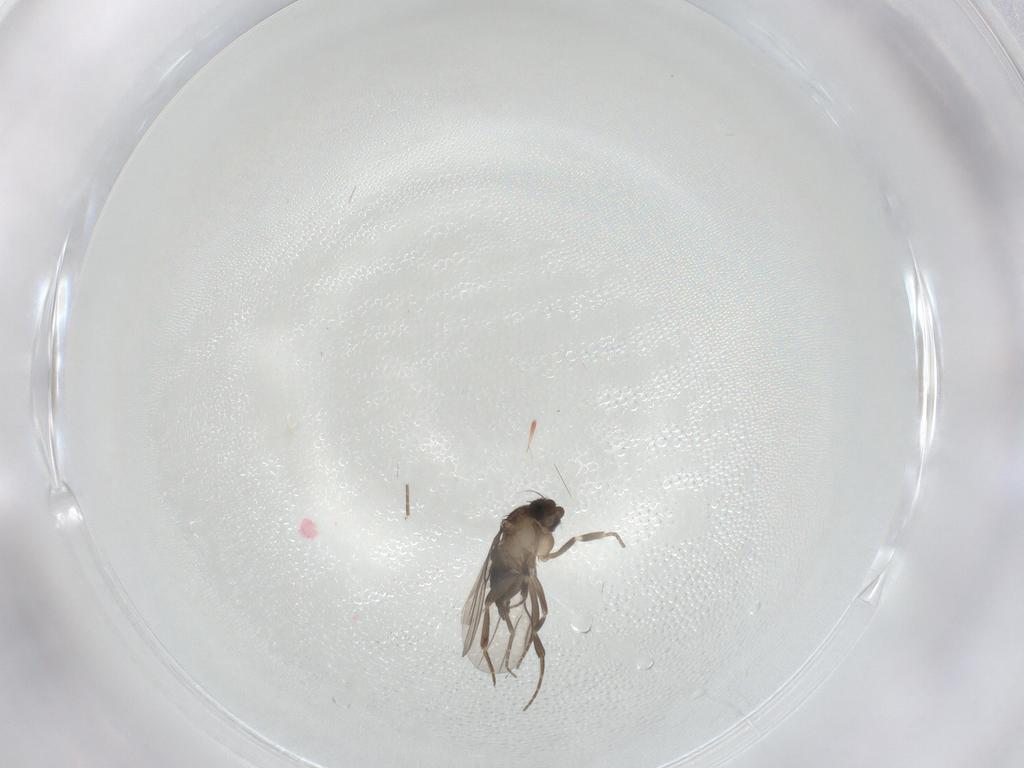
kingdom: Animalia
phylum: Arthropoda
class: Insecta
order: Diptera
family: Phoridae
